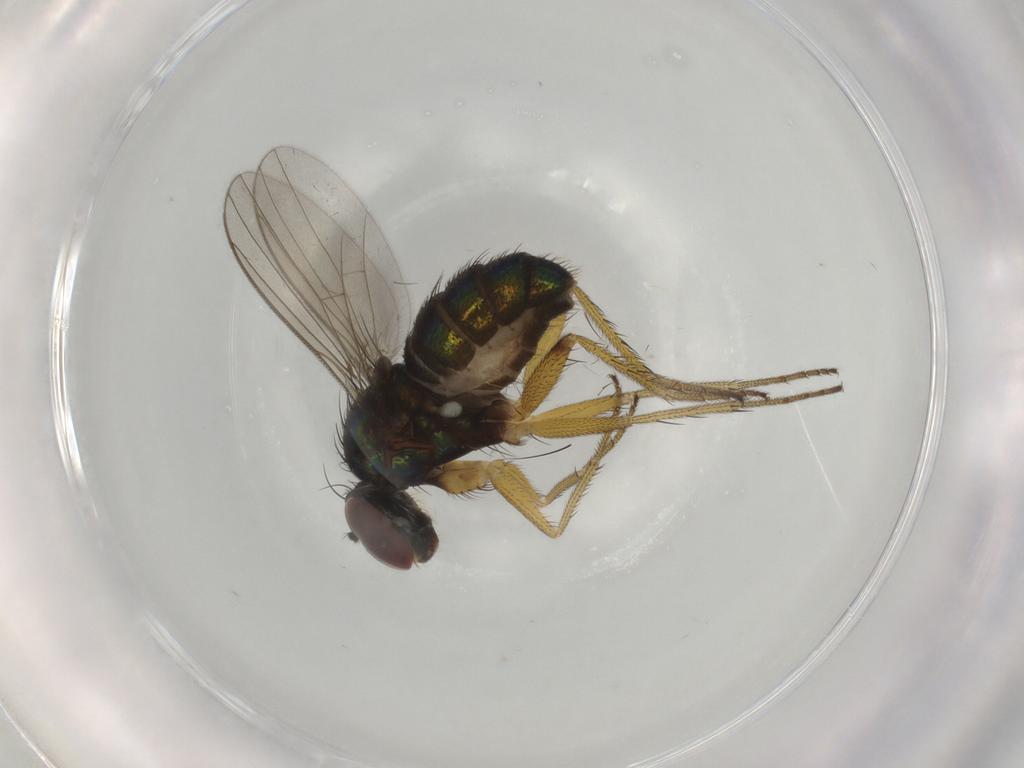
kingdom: Animalia
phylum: Arthropoda
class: Insecta
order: Diptera
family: Dolichopodidae
